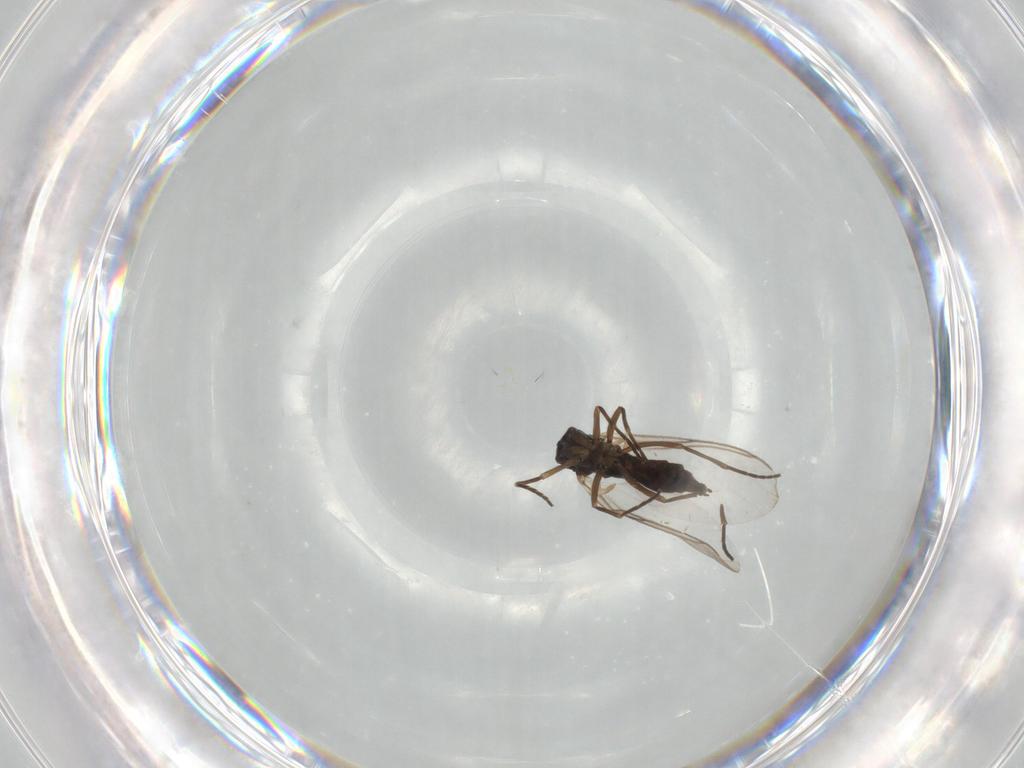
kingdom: Animalia
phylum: Arthropoda
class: Insecta
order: Diptera
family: Sciaridae
